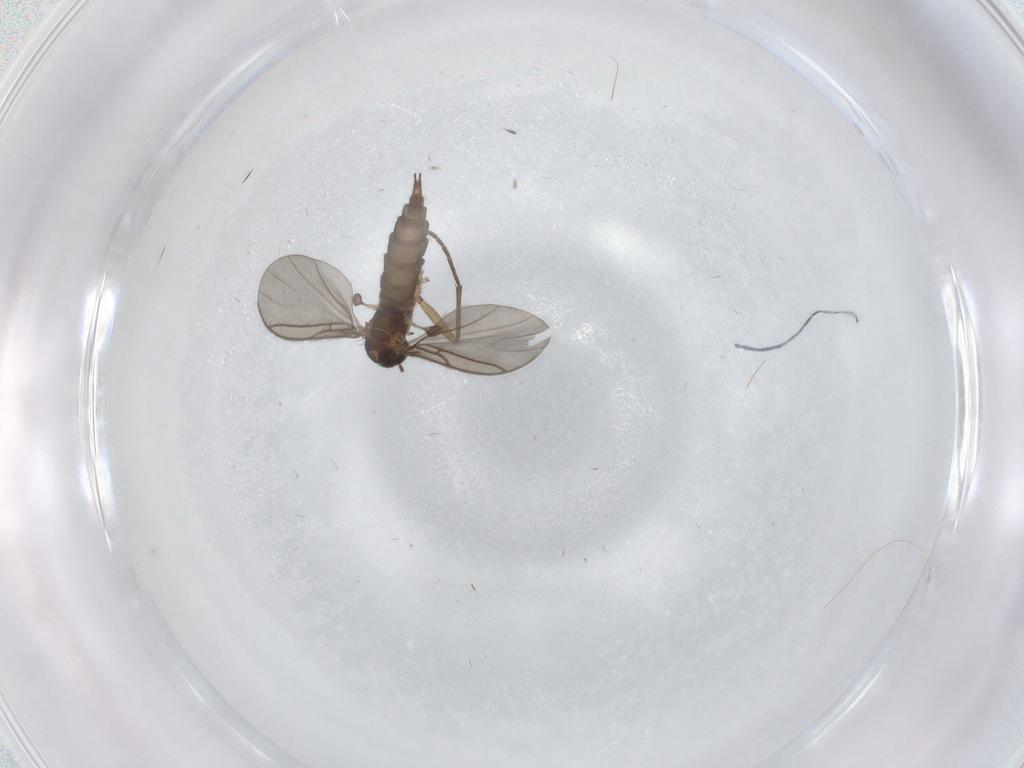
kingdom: Animalia
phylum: Arthropoda
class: Insecta
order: Diptera
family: Sciaridae
